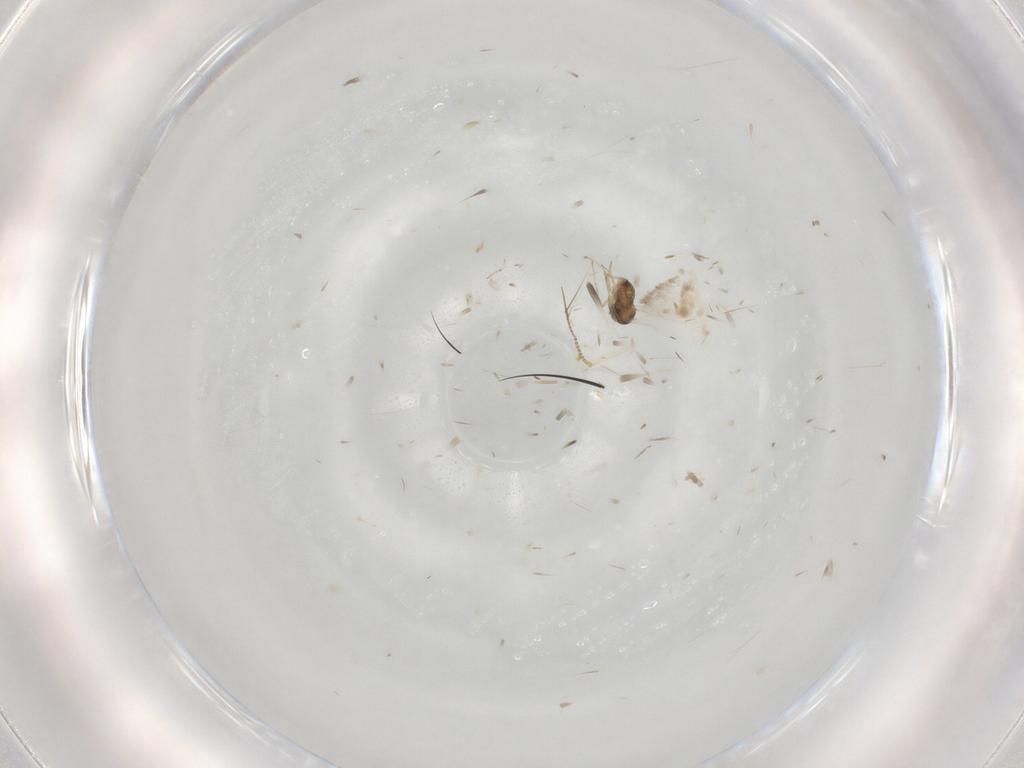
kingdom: Animalia
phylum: Arthropoda
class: Insecta
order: Diptera
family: Chironomidae
